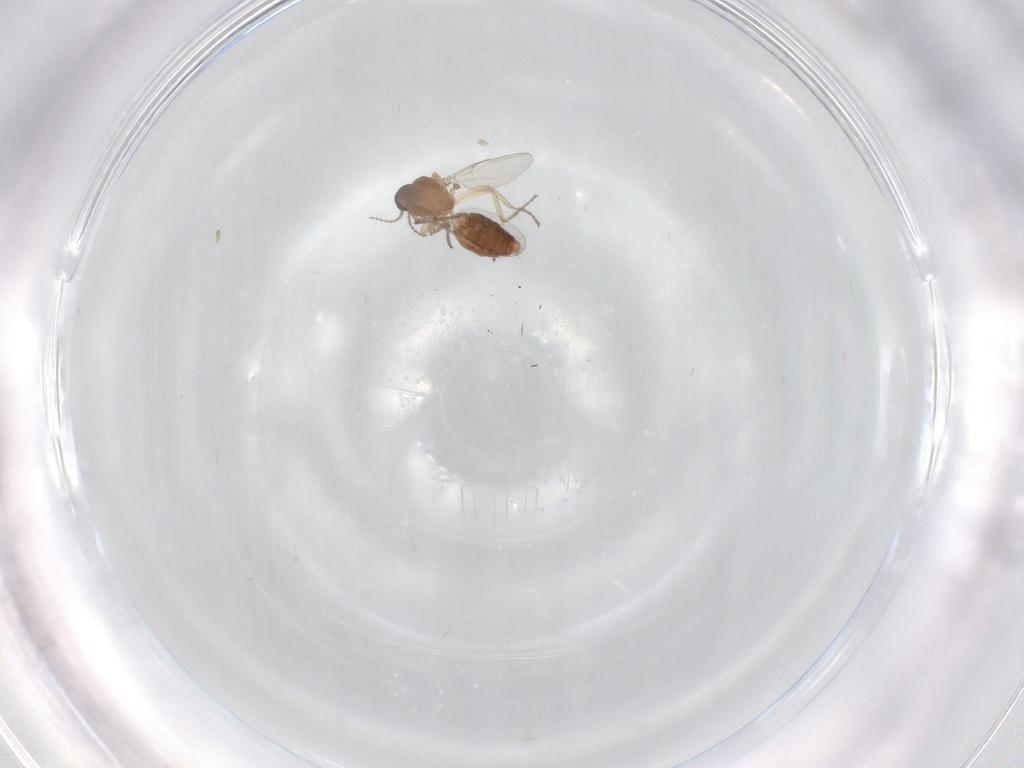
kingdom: Animalia
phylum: Arthropoda
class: Insecta
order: Diptera
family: Ceratopogonidae
